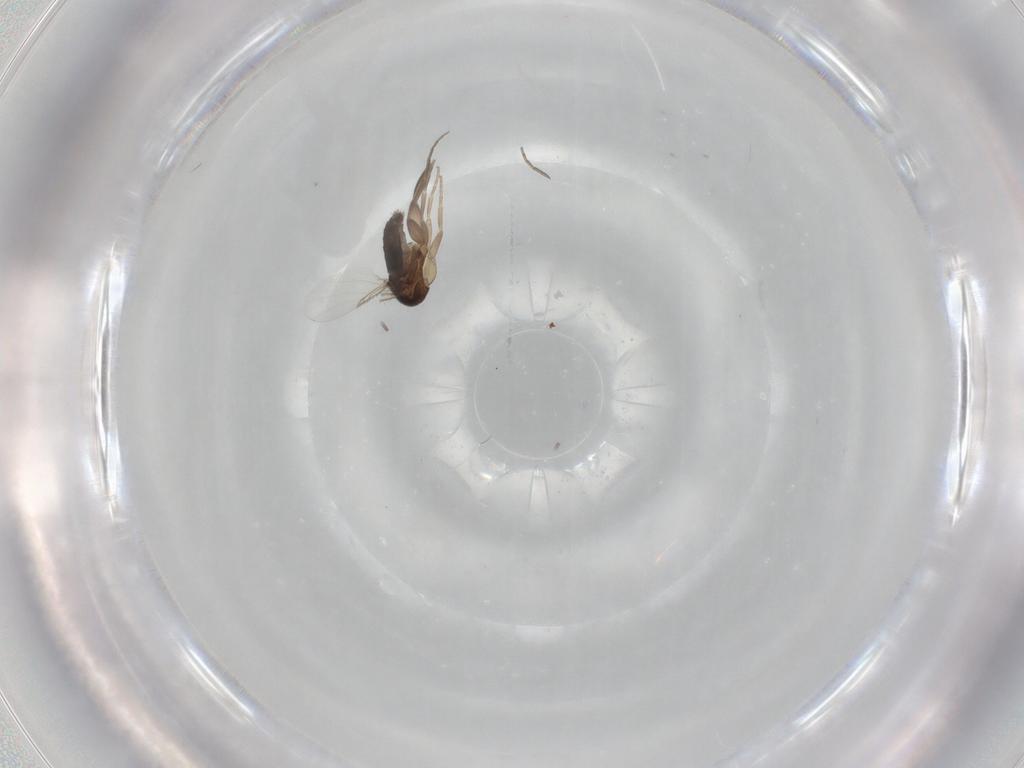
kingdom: Animalia
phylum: Arthropoda
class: Insecta
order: Diptera
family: Phoridae
